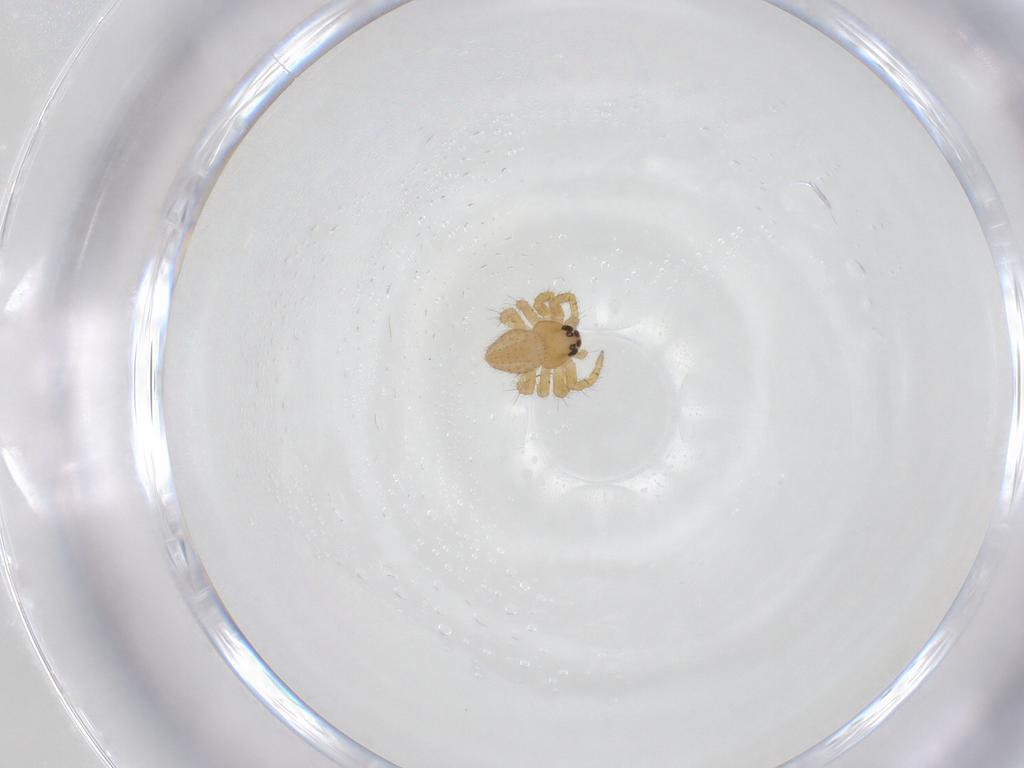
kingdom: Animalia
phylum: Arthropoda
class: Arachnida
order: Araneae
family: Theridiidae
